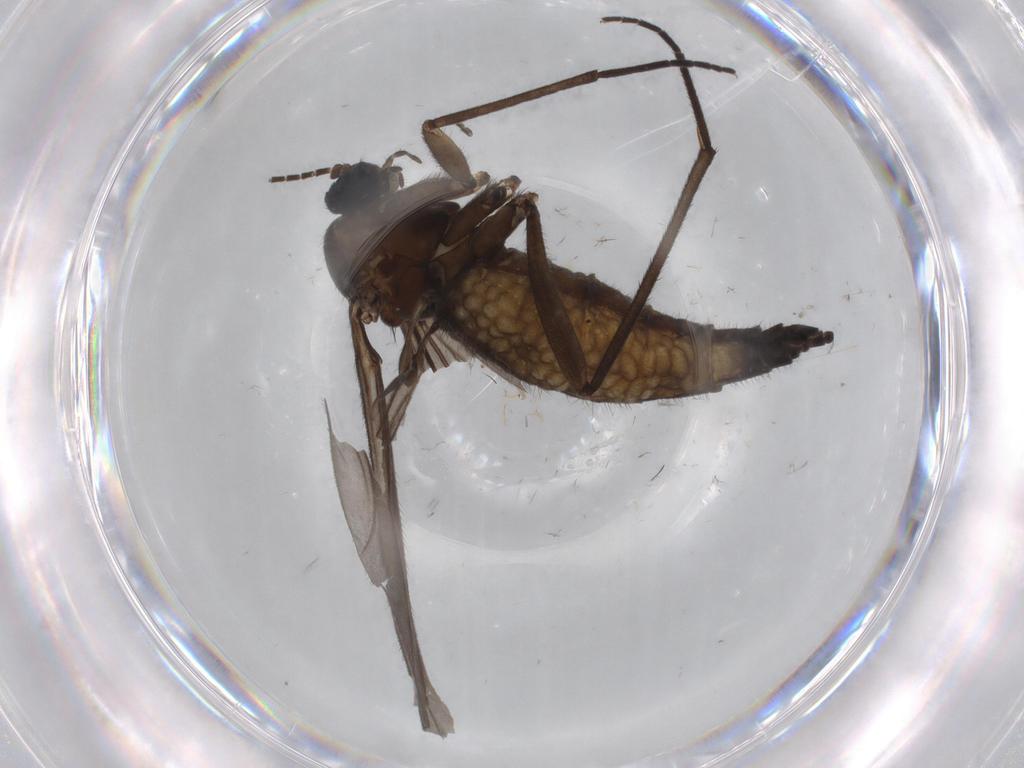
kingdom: Animalia
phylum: Arthropoda
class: Insecta
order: Diptera
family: Sciaridae
